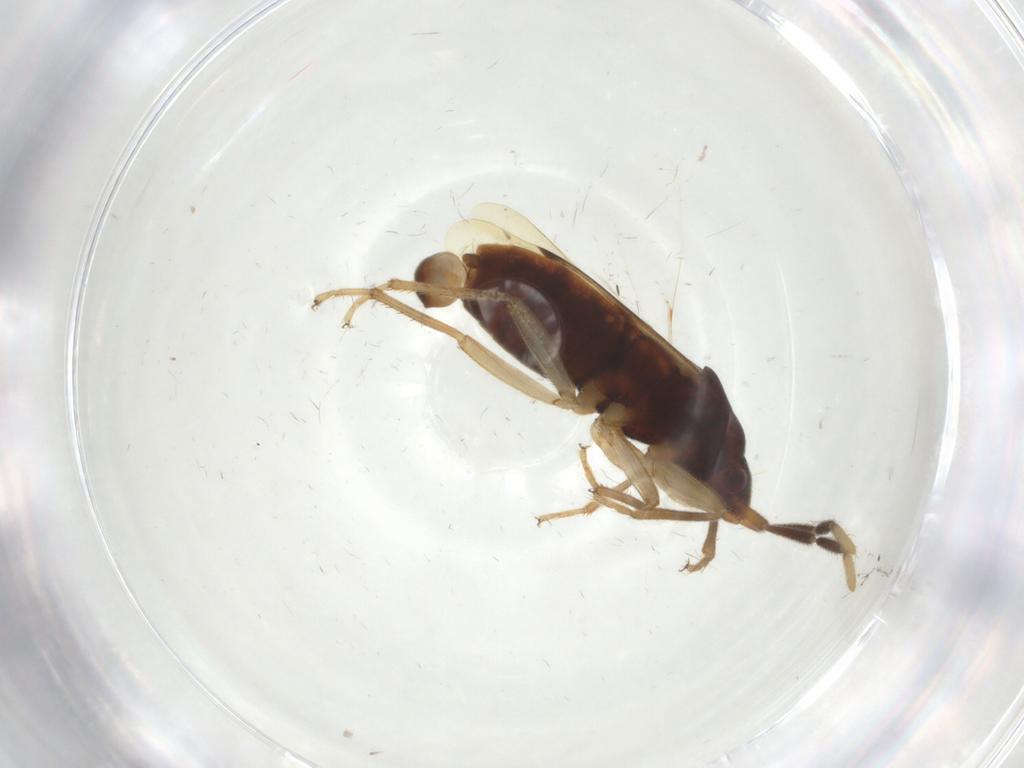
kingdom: Animalia
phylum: Arthropoda
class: Insecta
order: Hemiptera
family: Rhyparochromidae
